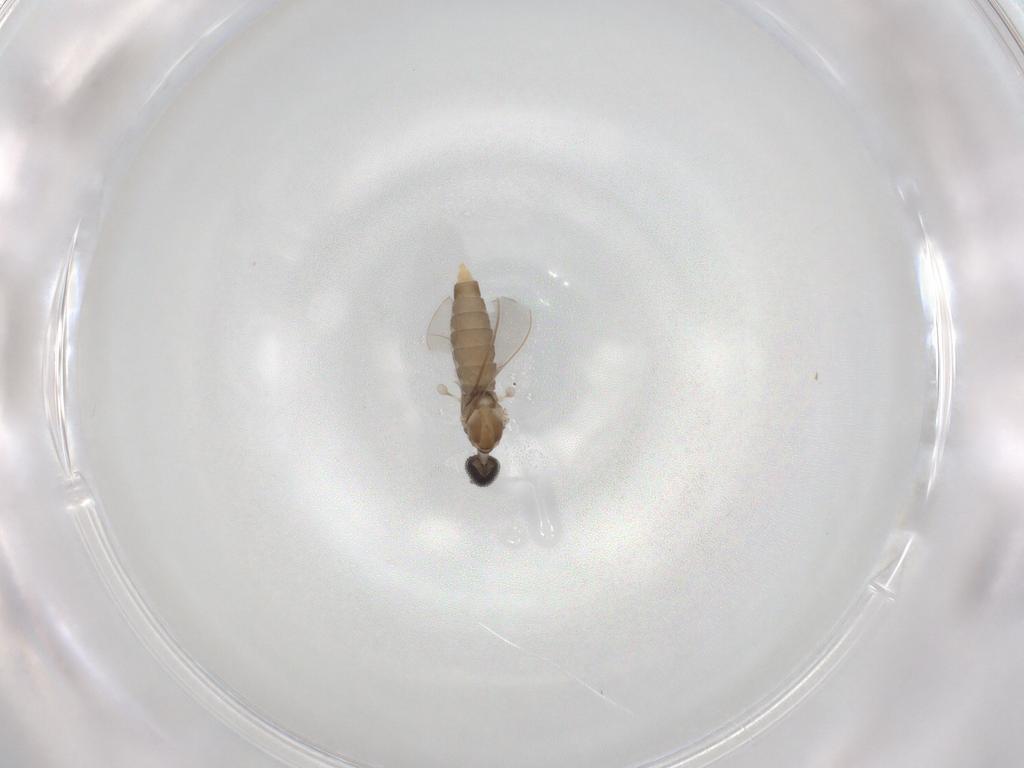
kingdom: Animalia
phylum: Arthropoda
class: Insecta
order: Diptera
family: Cecidomyiidae
